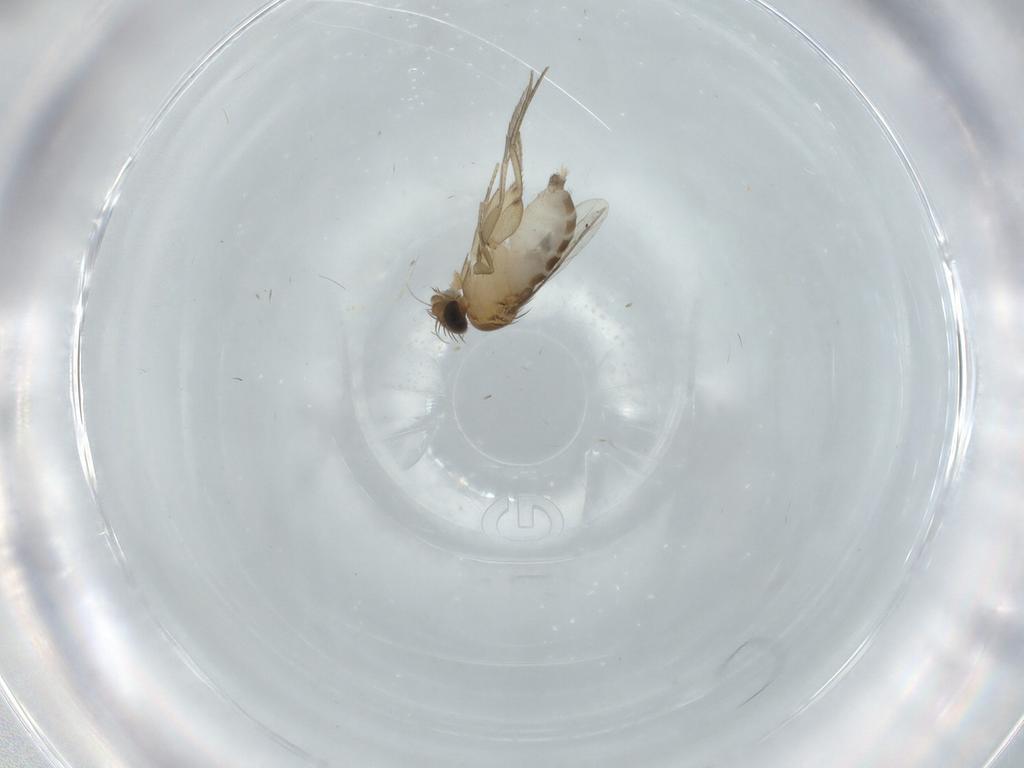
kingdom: Animalia
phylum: Arthropoda
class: Insecta
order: Diptera
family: Phoridae
